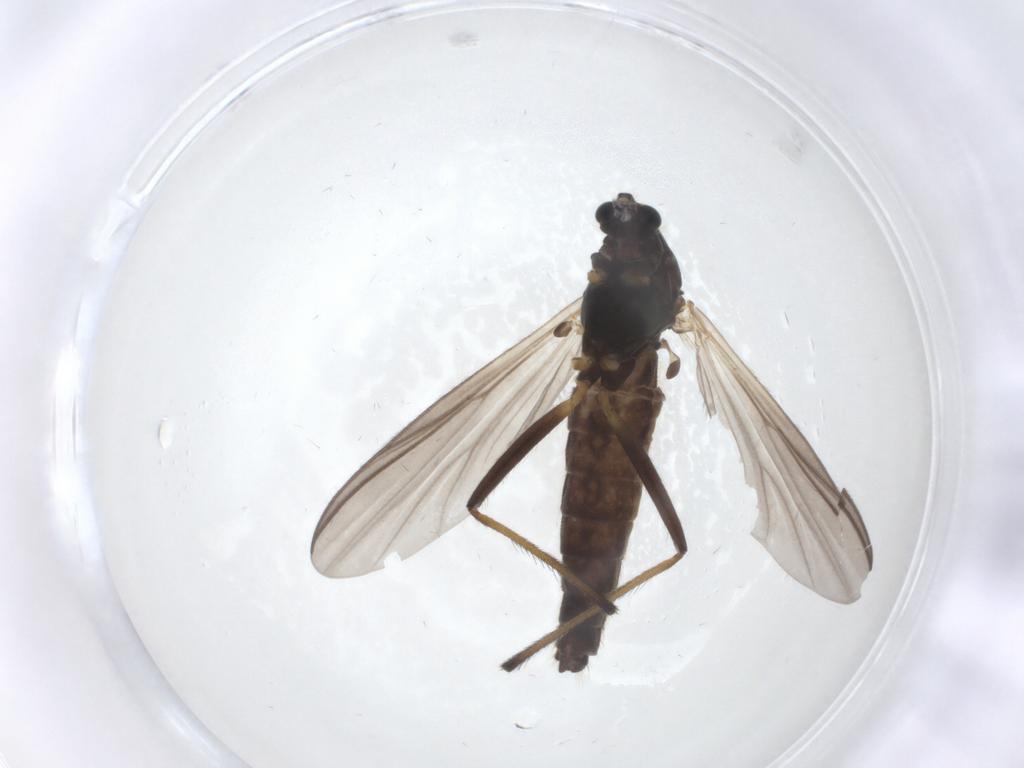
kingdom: Animalia
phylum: Arthropoda
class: Insecta
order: Diptera
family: Chironomidae
